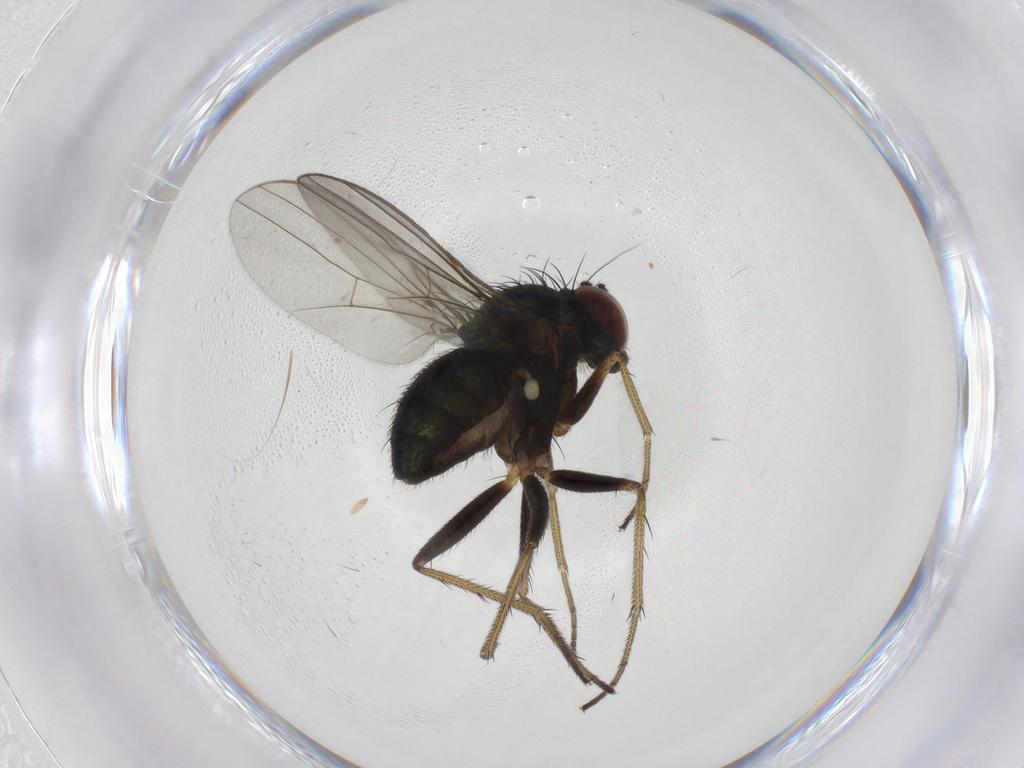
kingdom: Animalia
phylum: Arthropoda
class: Insecta
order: Diptera
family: Dolichopodidae
